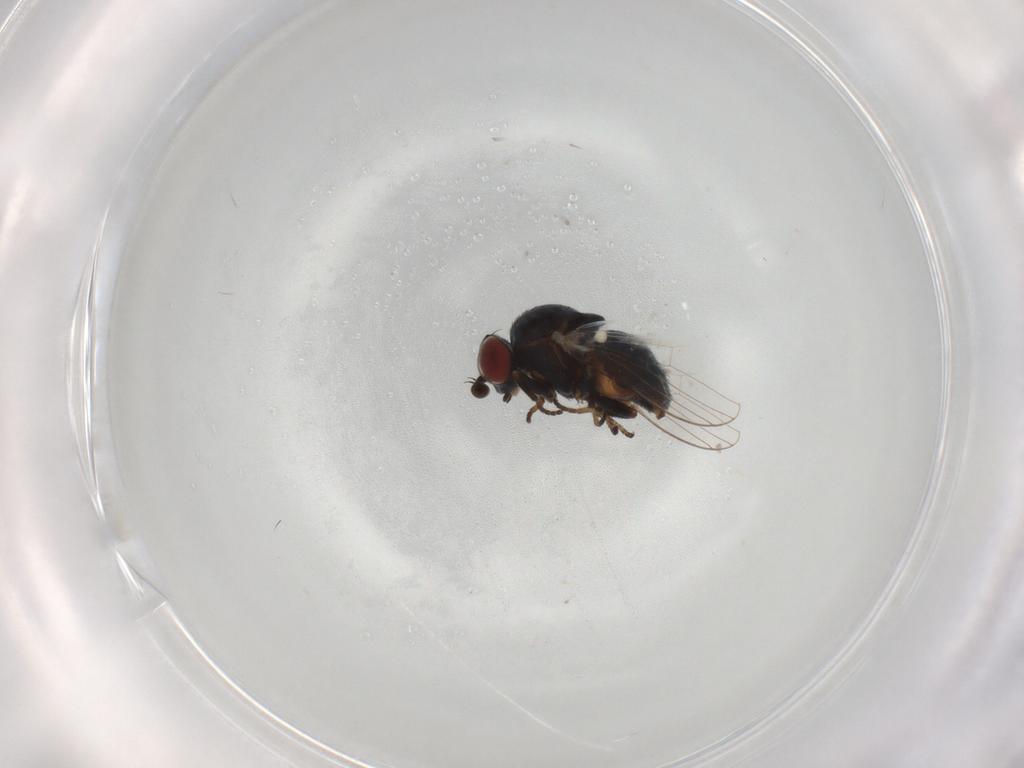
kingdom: Animalia
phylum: Arthropoda
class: Insecta
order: Diptera
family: Chamaemyiidae
